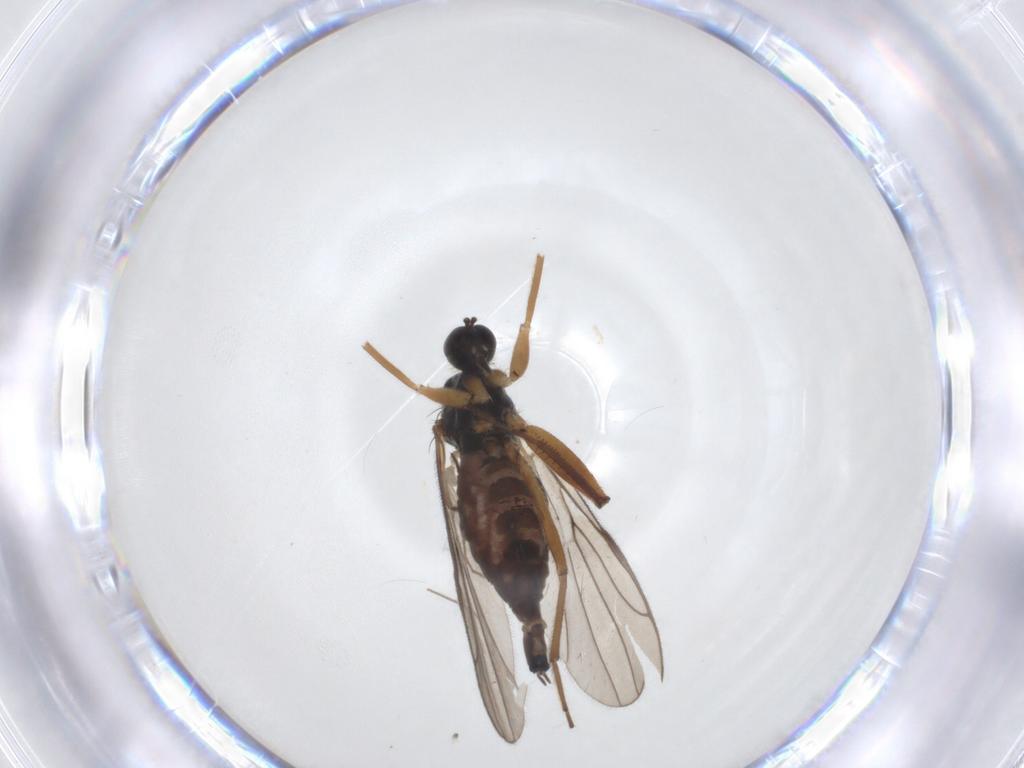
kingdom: Animalia
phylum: Arthropoda
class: Insecta
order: Diptera
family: Hybotidae
